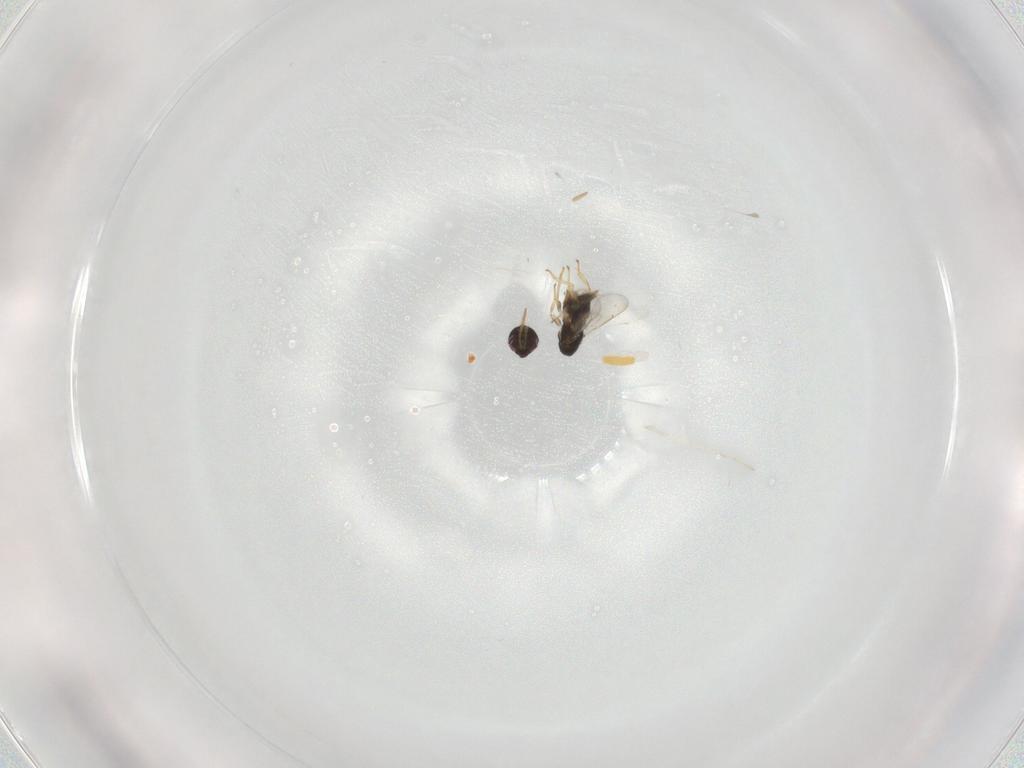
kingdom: Animalia
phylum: Arthropoda
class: Insecta
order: Hymenoptera
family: Aphelinidae
